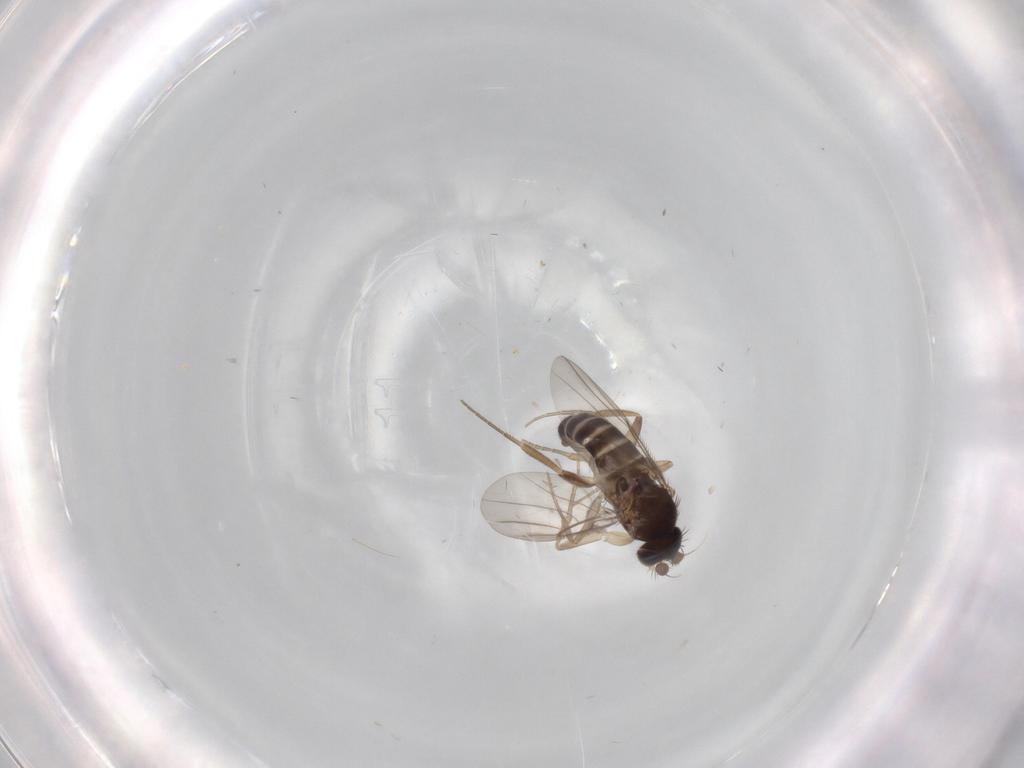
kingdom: Animalia
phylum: Arthropoda
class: Insecta
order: Diptera
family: Phoridae
